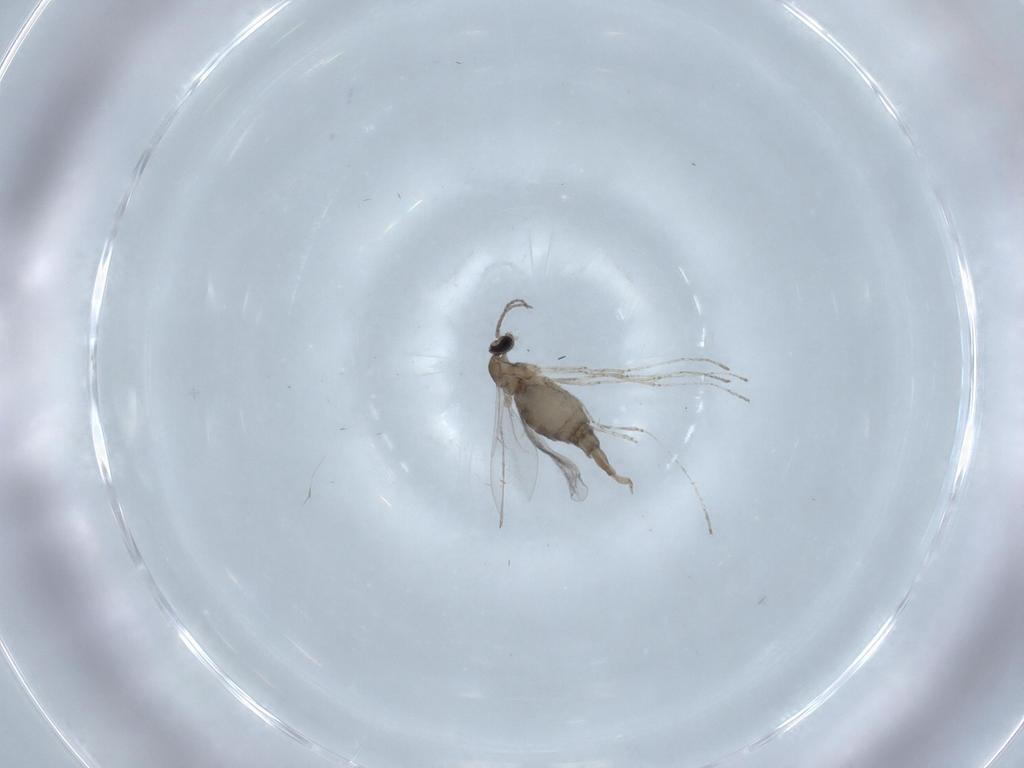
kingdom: Animalia
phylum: Arthropoda
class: Insecta
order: Diptera
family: Cecidomyiidae
